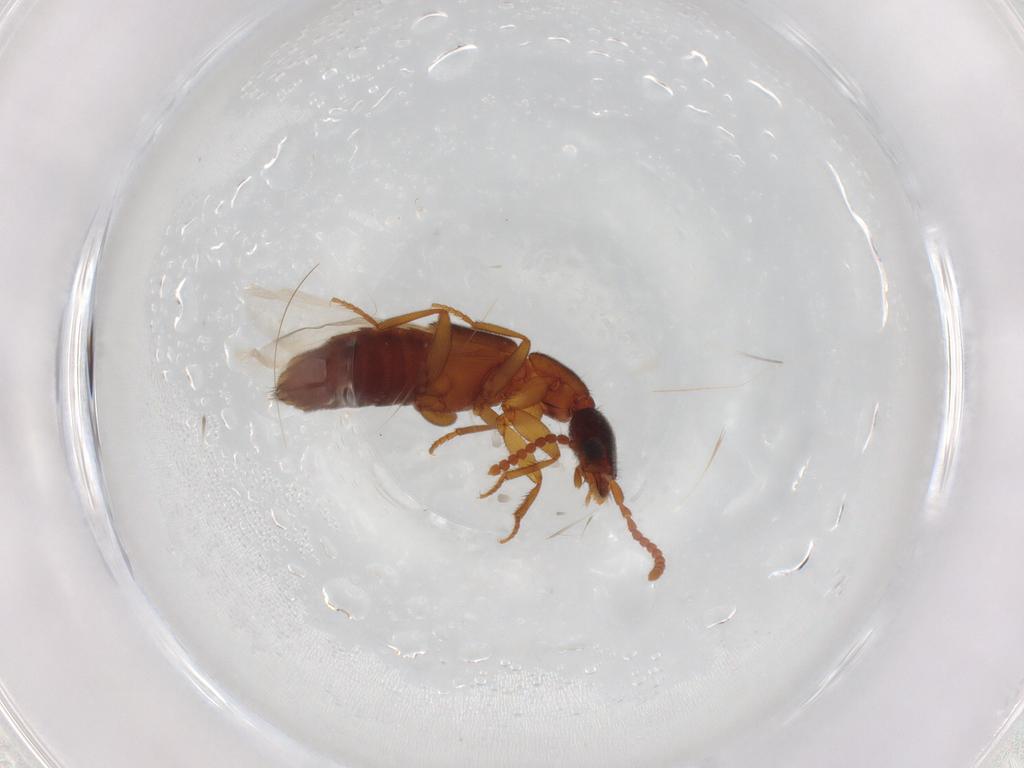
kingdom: Animalia
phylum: Arthropoda
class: Insecta
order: Coleoptera
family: Staphylinidae
